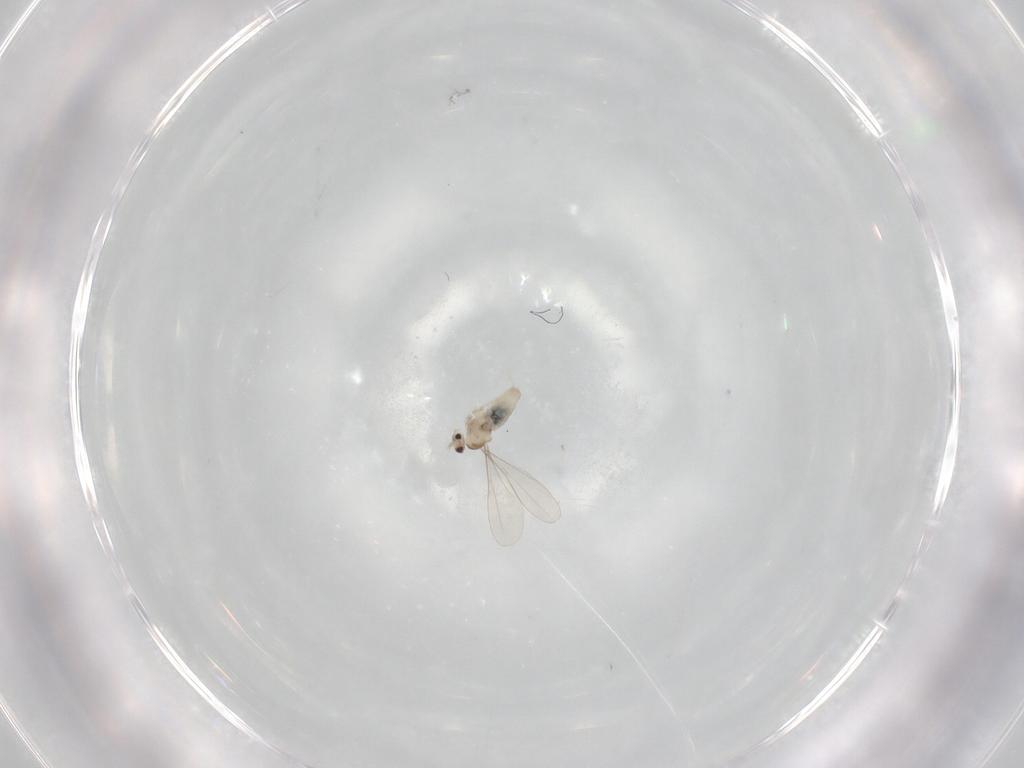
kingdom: Animalia
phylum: Arthropoda
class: Insecta
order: Diptera
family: Cecidomyiidae
